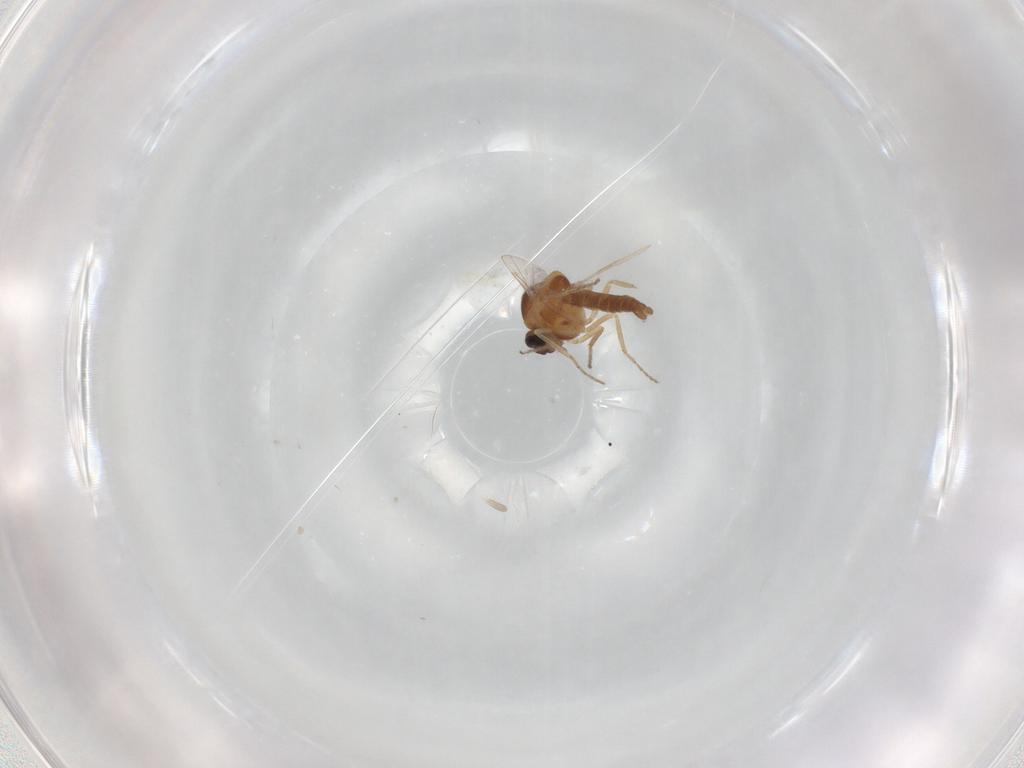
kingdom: Animalia
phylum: Arthropoda
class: Insecta
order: Diptera
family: Ceratopogonidae
